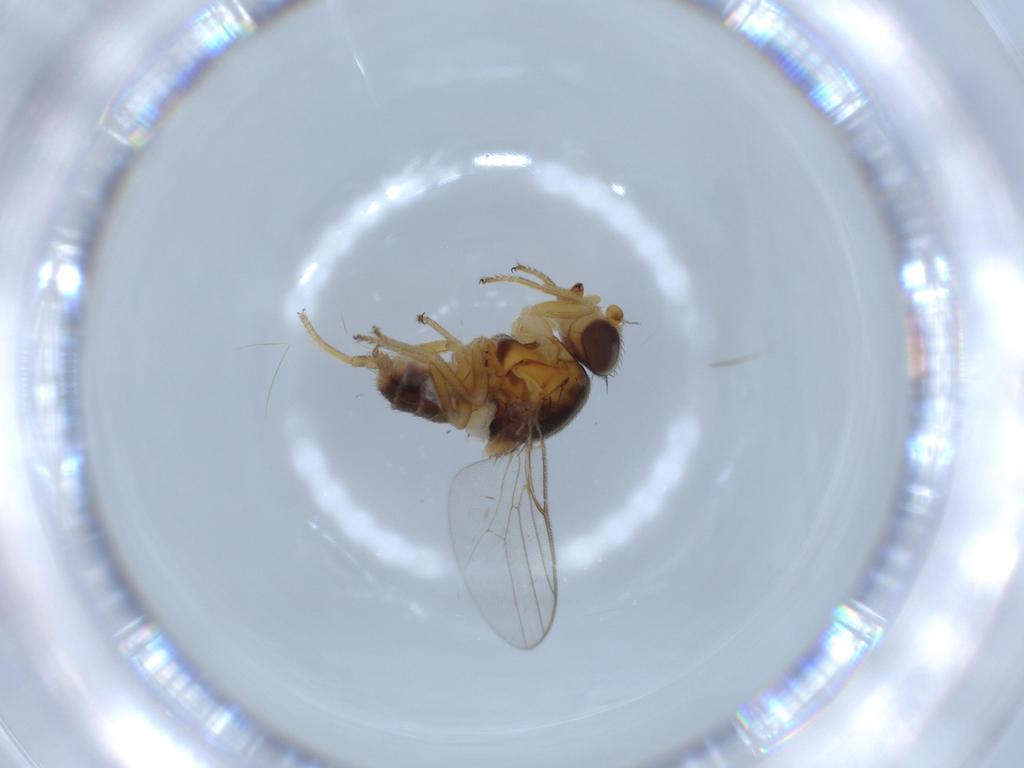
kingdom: Animalia
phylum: Arthropoda
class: Insecta
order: Diptera
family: Chloropidae
